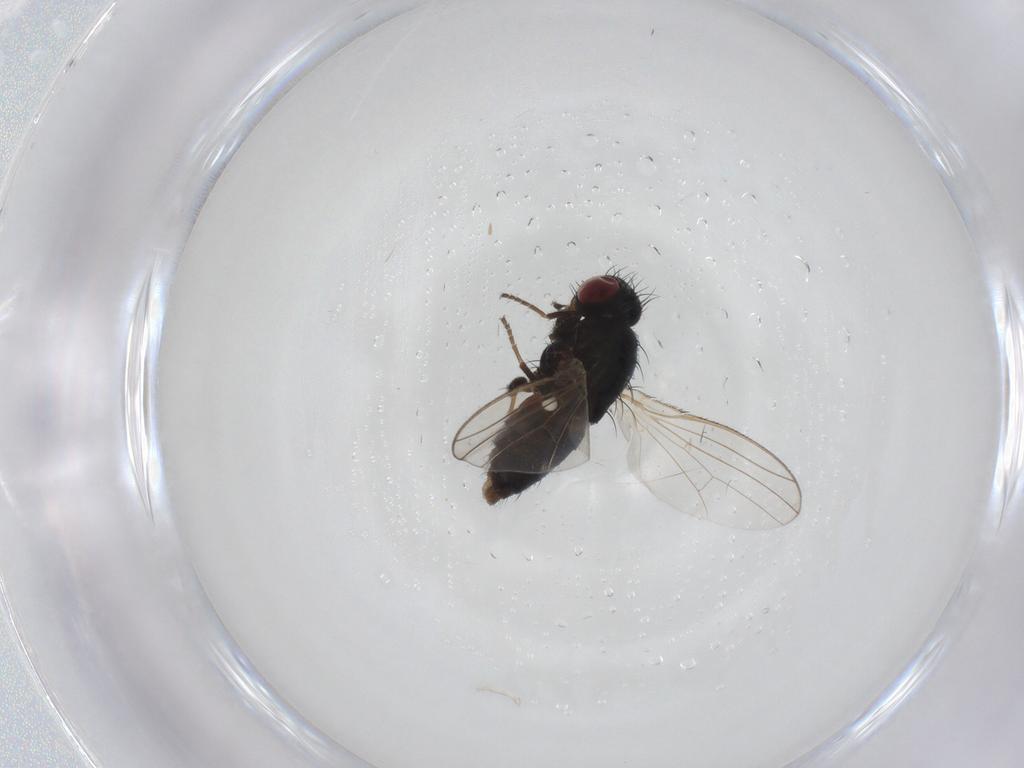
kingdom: Animalia
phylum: Arthropoda
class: Insecta
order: Diptera
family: Carnidae
